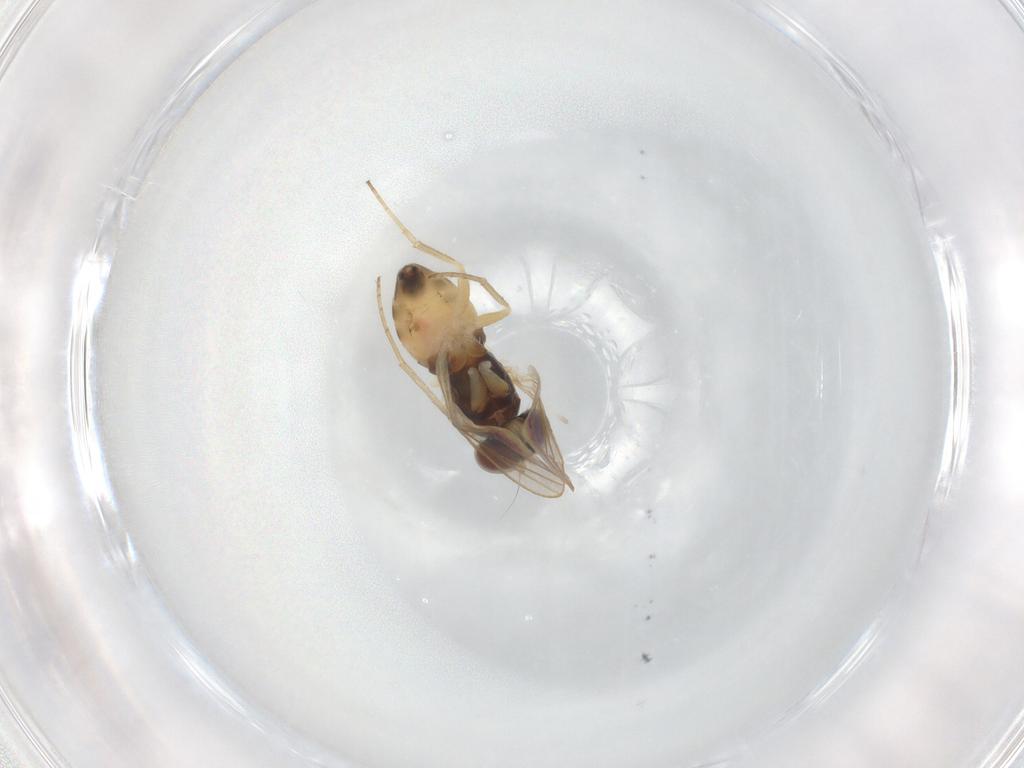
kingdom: Animalia
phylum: Arthropoda
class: Insecta
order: Diptera
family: Dolichopodidae
